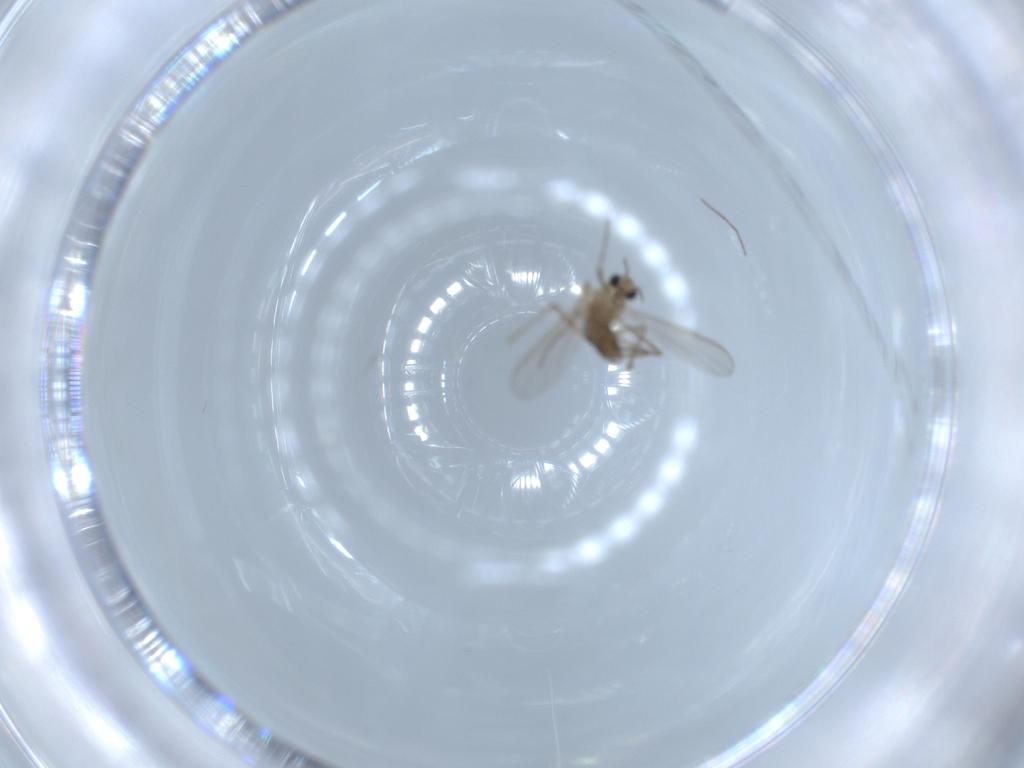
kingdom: Animalia
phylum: Arthropoda
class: Insecta
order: Diptera
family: Chironomidae
